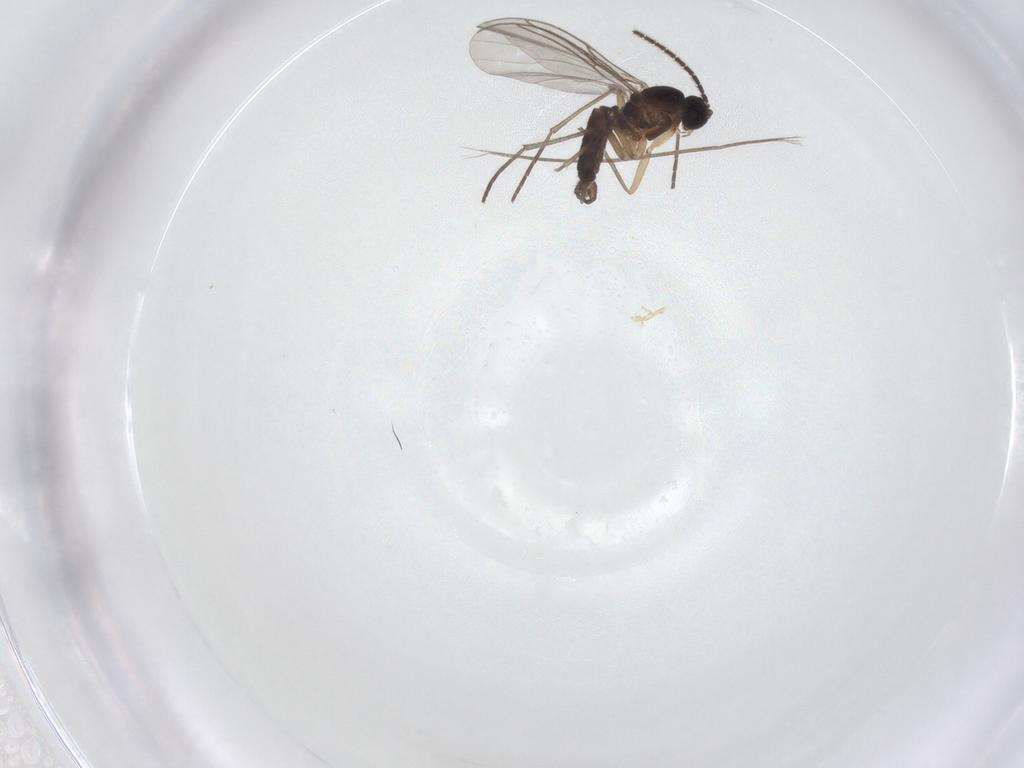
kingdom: Animalia
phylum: Arthropoda
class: Insecta
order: Diptera
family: Sciaridae
